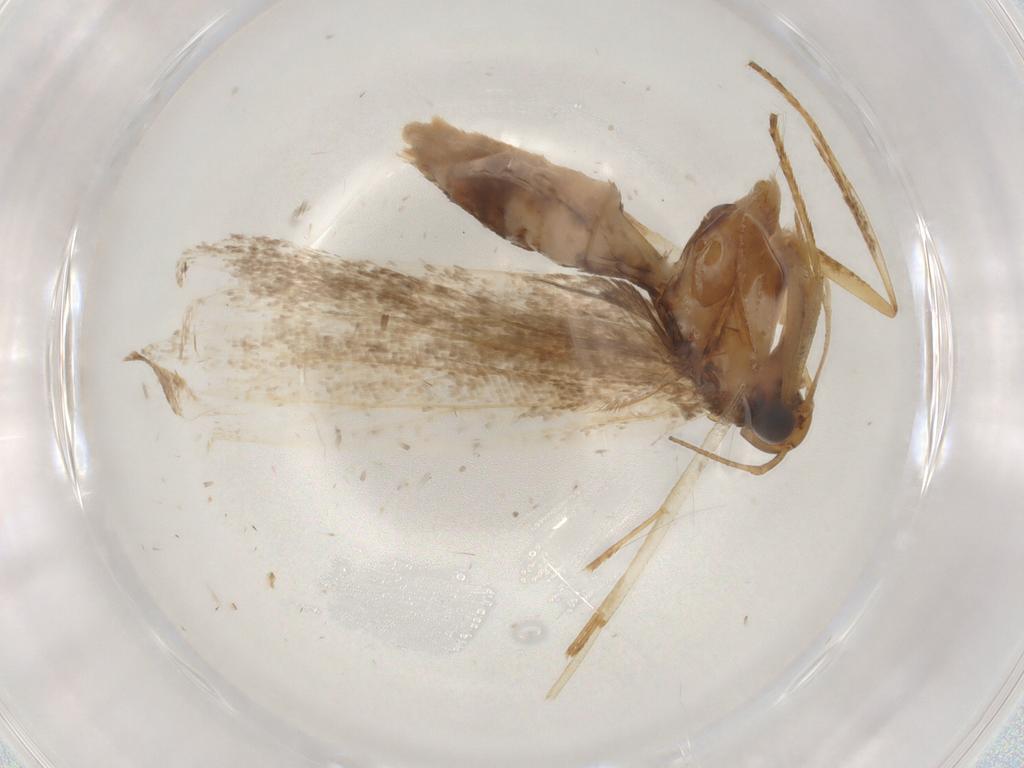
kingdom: Animalia
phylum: Arthropoda
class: Insecta
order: Lepidoptera
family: Gelechiidae
